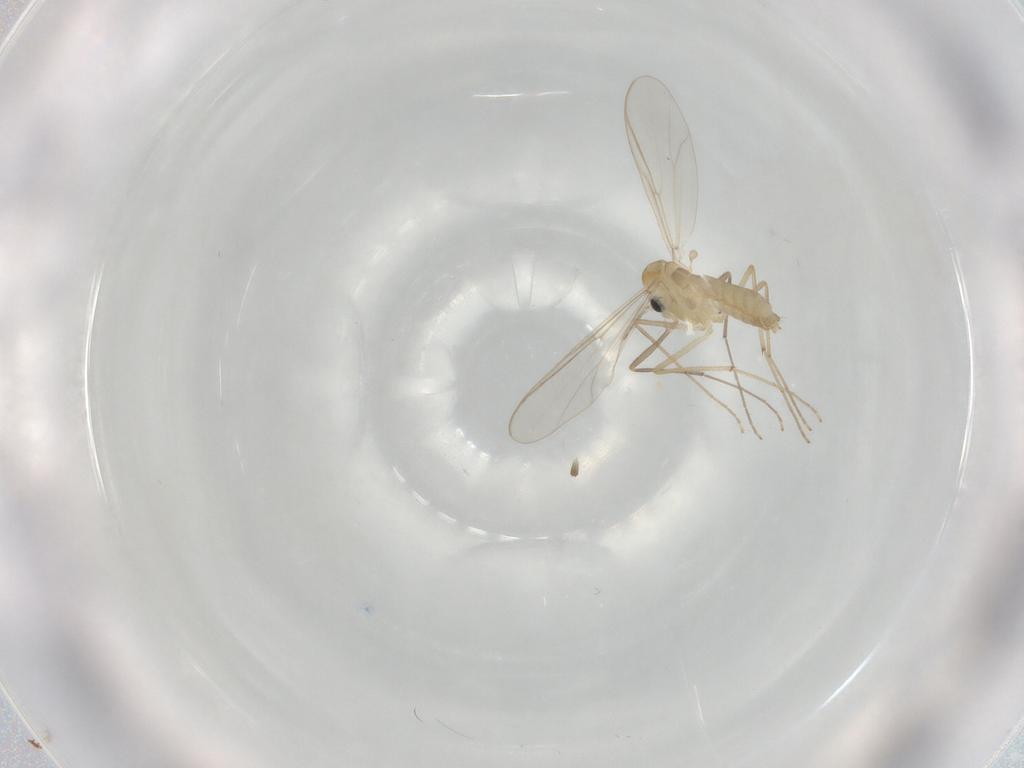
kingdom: Animalia
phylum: Arthropoda
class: Insecta
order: Diptera
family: Chironomidae
